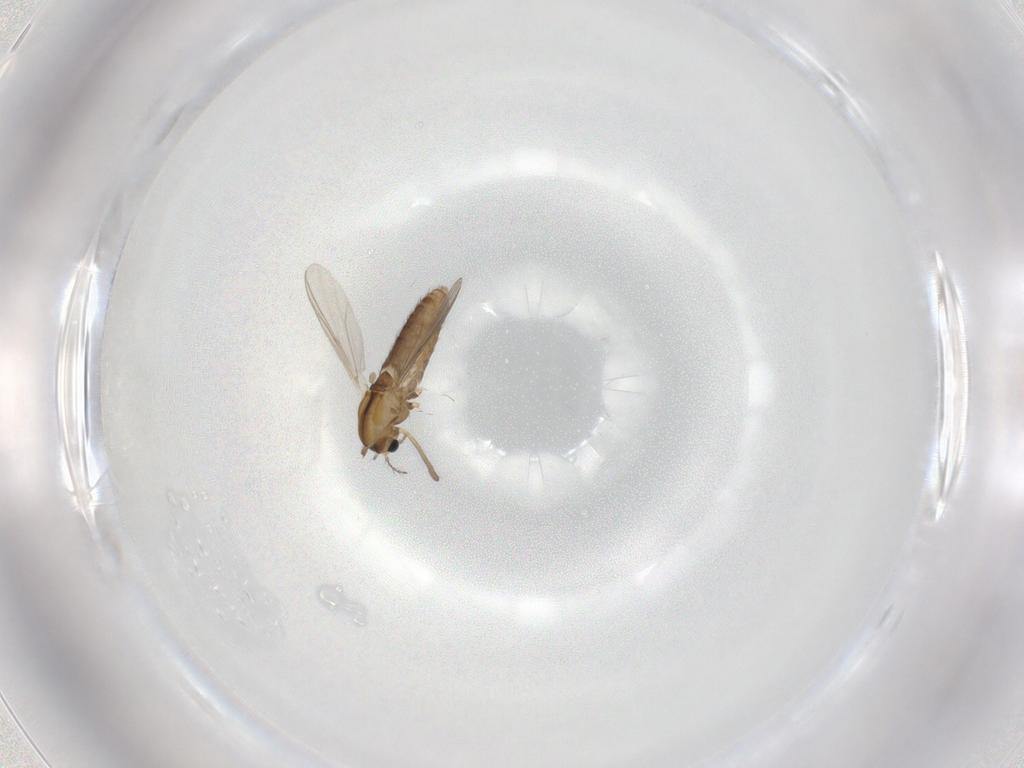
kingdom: Animalia
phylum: Arthropoda
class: Insecta
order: Diptera
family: Chironomidae
